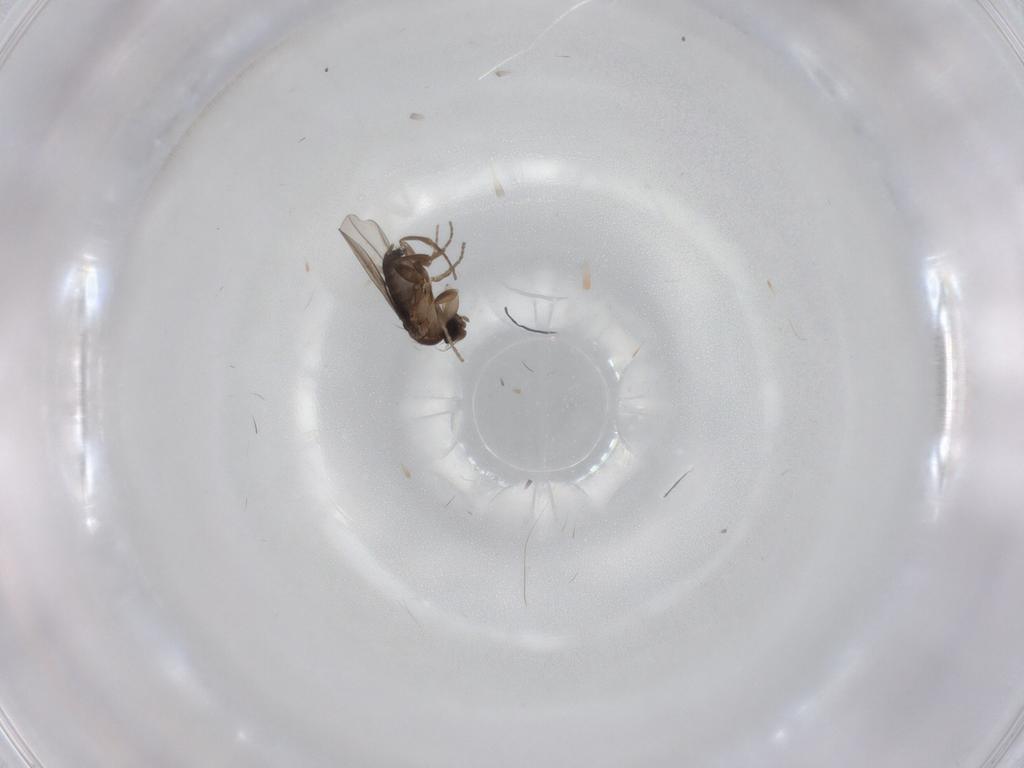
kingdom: Animalia
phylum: Arthropoda
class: Insecta
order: Diptera
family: Phoridae
